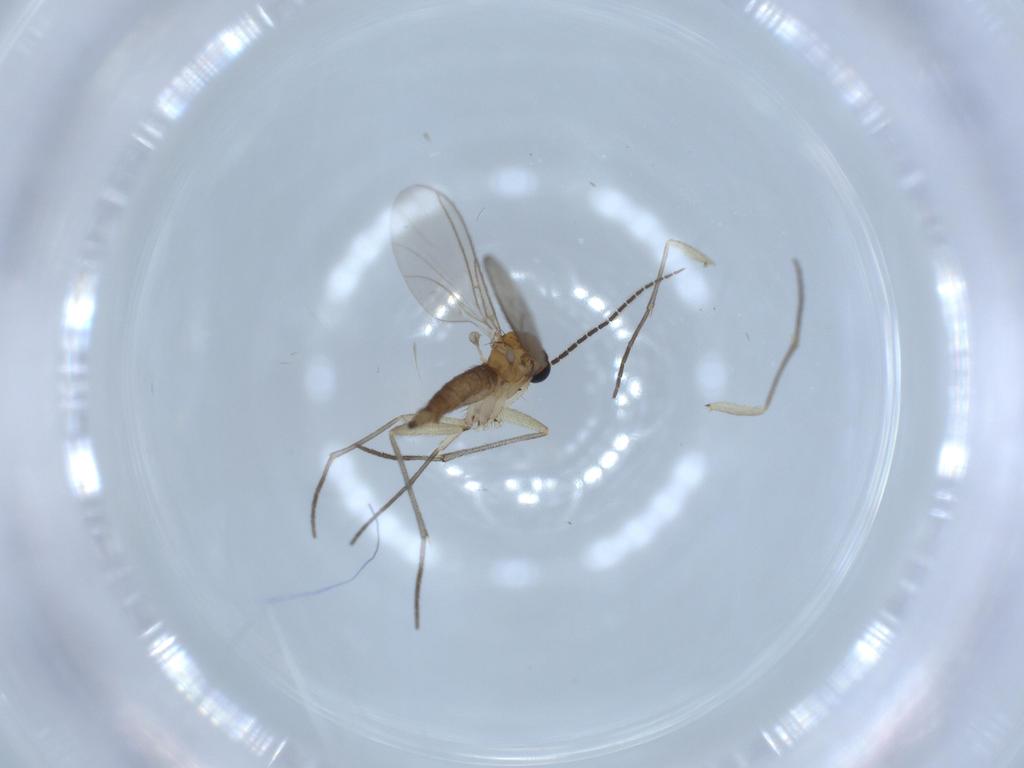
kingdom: Animalia
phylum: Arthropoda
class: Insecta
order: Diptera
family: Sciaridae
